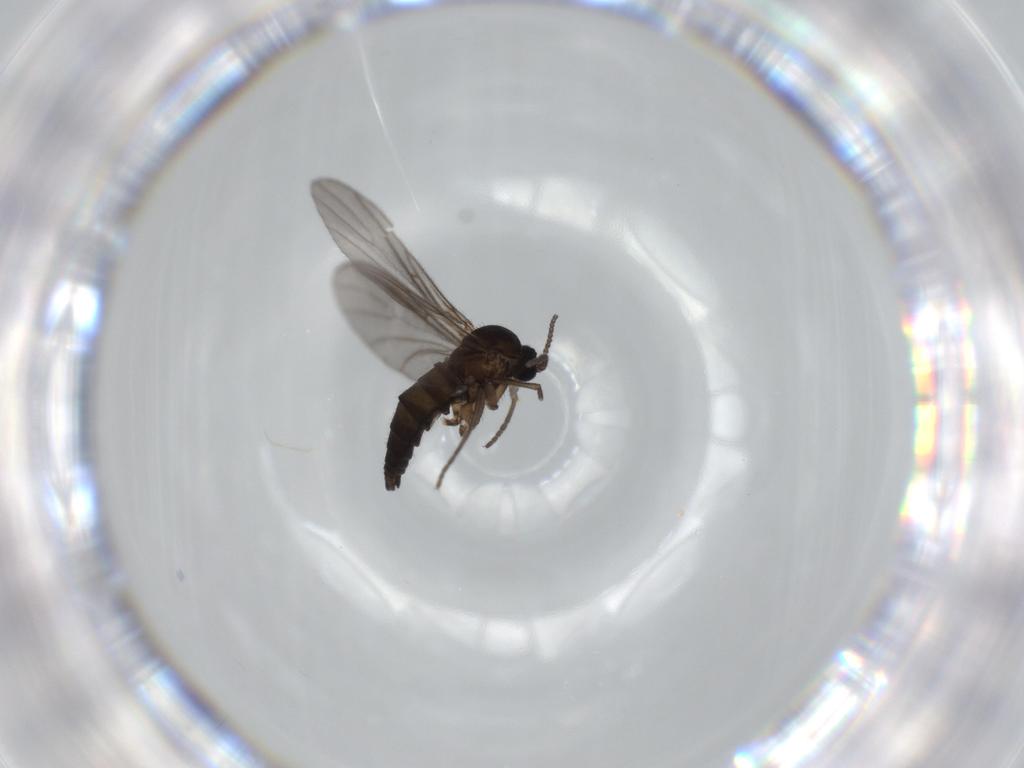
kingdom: Animalia
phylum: Arthropoda
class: Insecta
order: Diptera
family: Sciaridae
